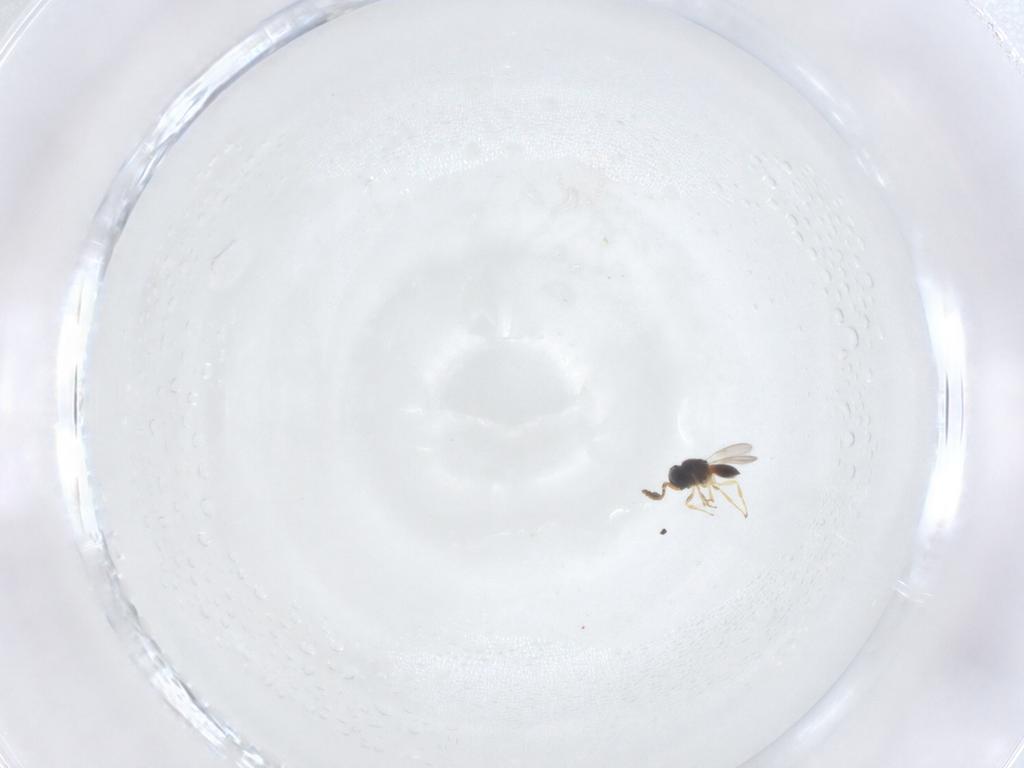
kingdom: Animalia
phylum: Arthropoda
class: Insecta
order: Hymenoptera
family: Scelionidae
